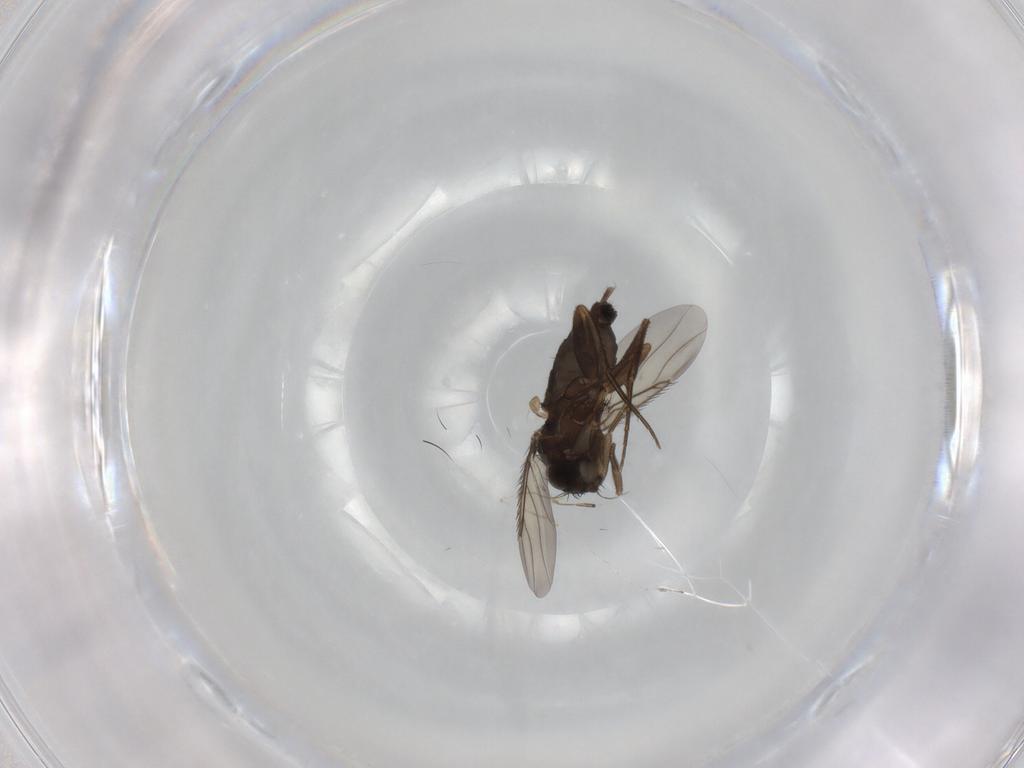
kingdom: Animalia
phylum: Arthropoda
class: Insecta
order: Diptera
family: Phoridae
